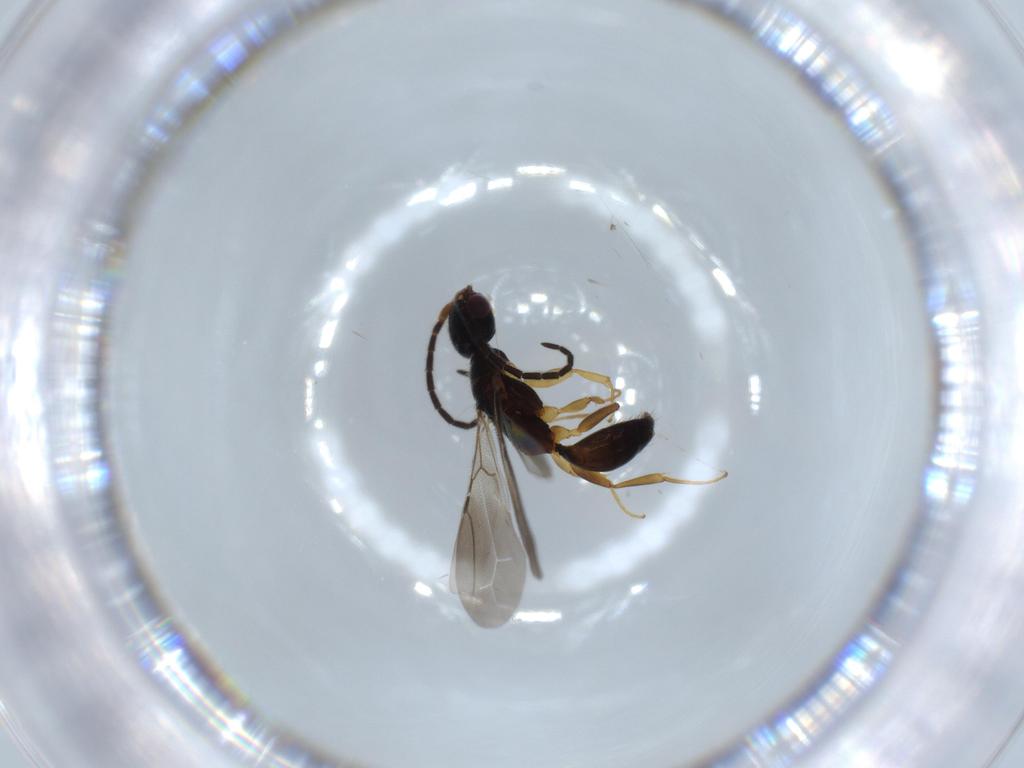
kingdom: Animalia
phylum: Arthropoda
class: Insecta
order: Hymenoptera
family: Bethylidae
